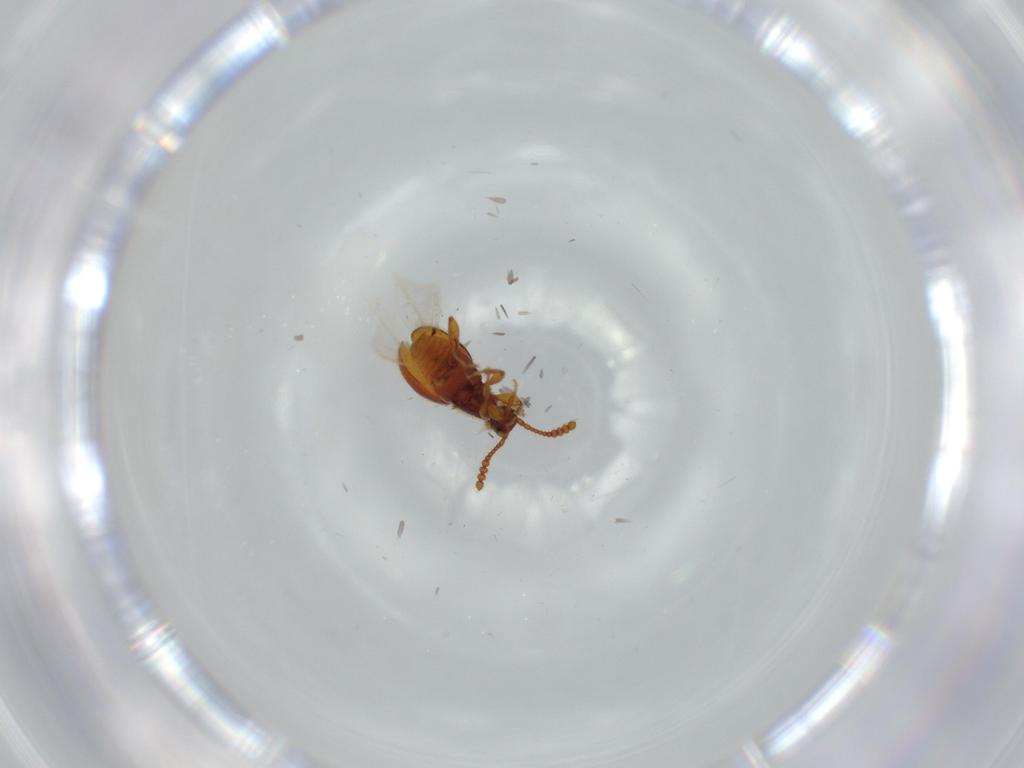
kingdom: Animalia
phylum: Arthropoda
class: Insecta
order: Coleoptera
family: Staphylinidae
